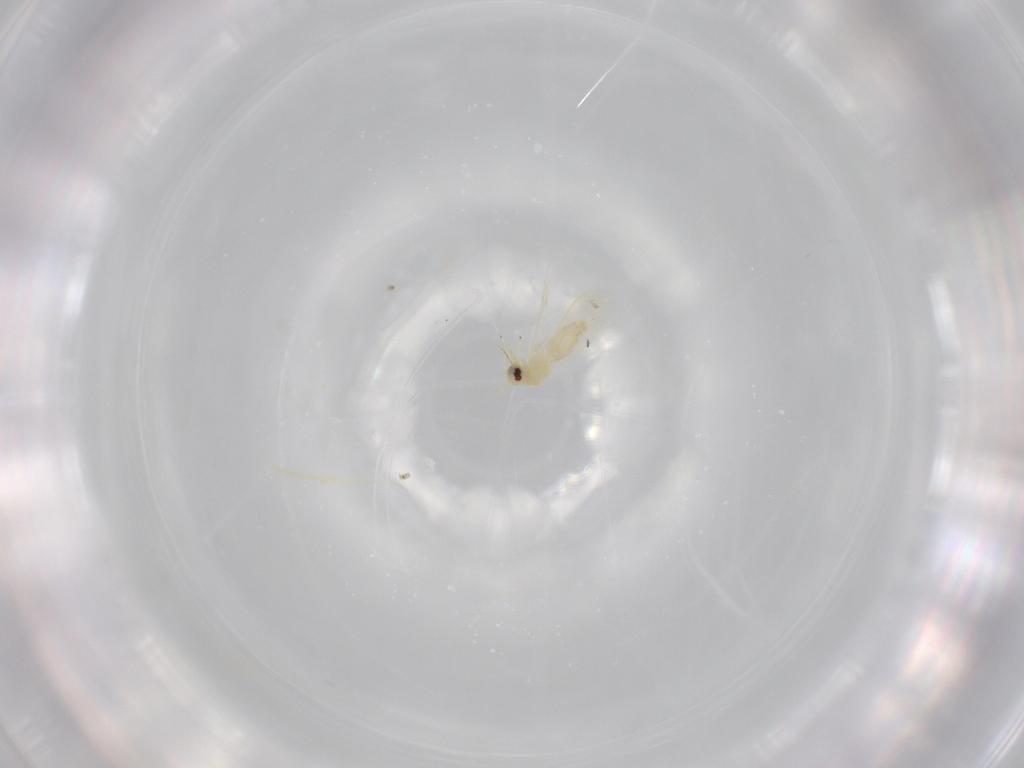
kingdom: Animalia
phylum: Arthropoda
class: Insecta
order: Hemiptera
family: Aleyrodidae
